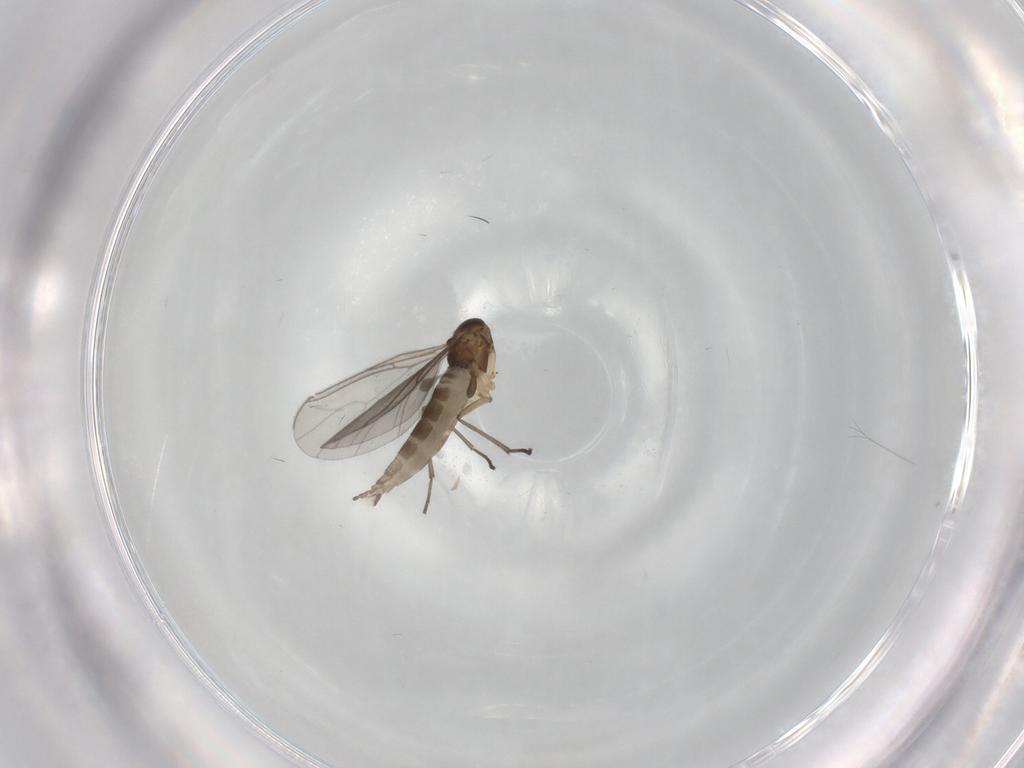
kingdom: Animalia
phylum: Arthropoda
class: Insecta
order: Diptera
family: Sciaridae
